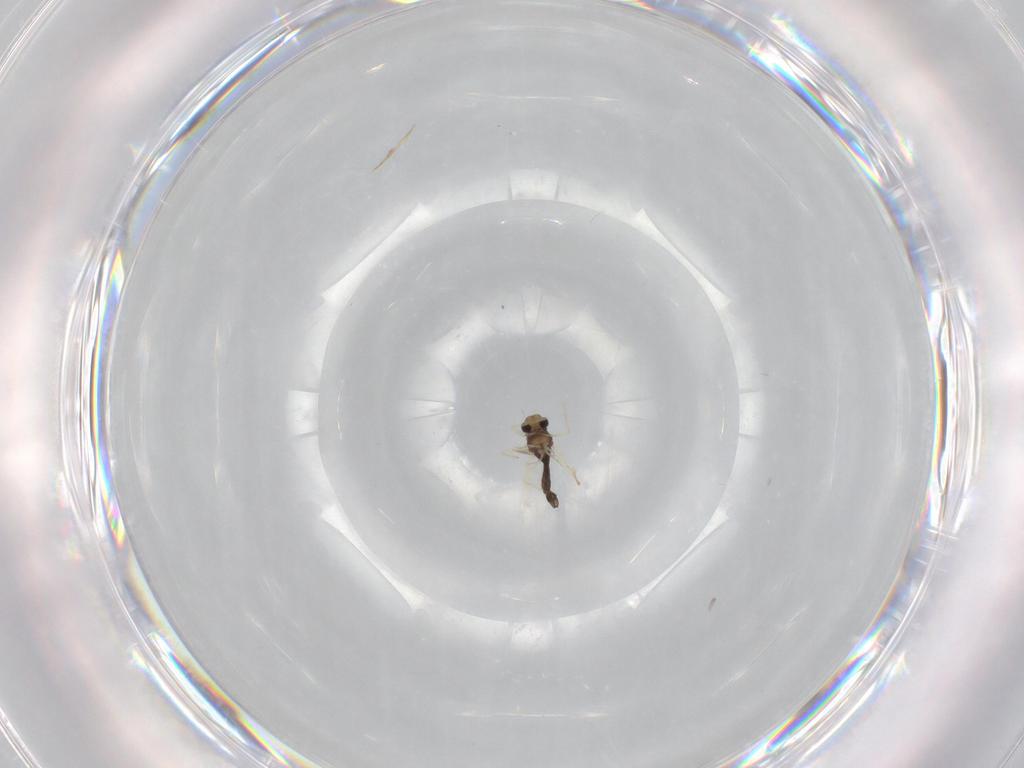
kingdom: Animalia
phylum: Arthropoda
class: Insecta
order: Diptera
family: Chironomidae
